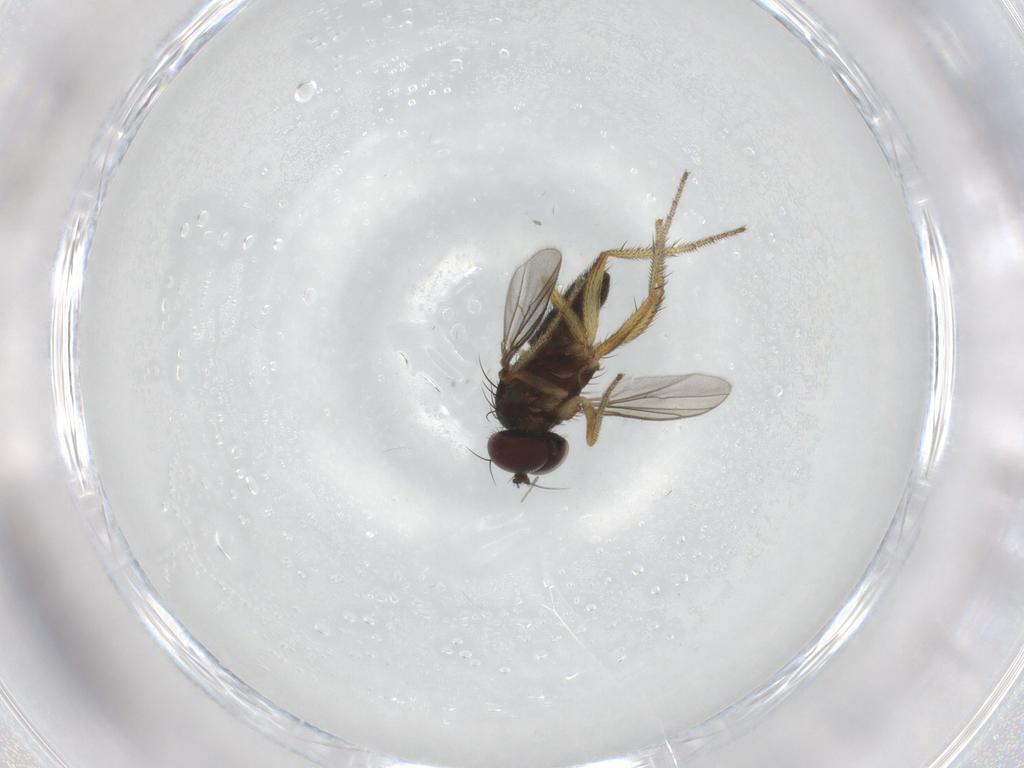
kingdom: Animalia
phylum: Arthropoda
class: Insecta
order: Diptera
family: Dolichopodidae
